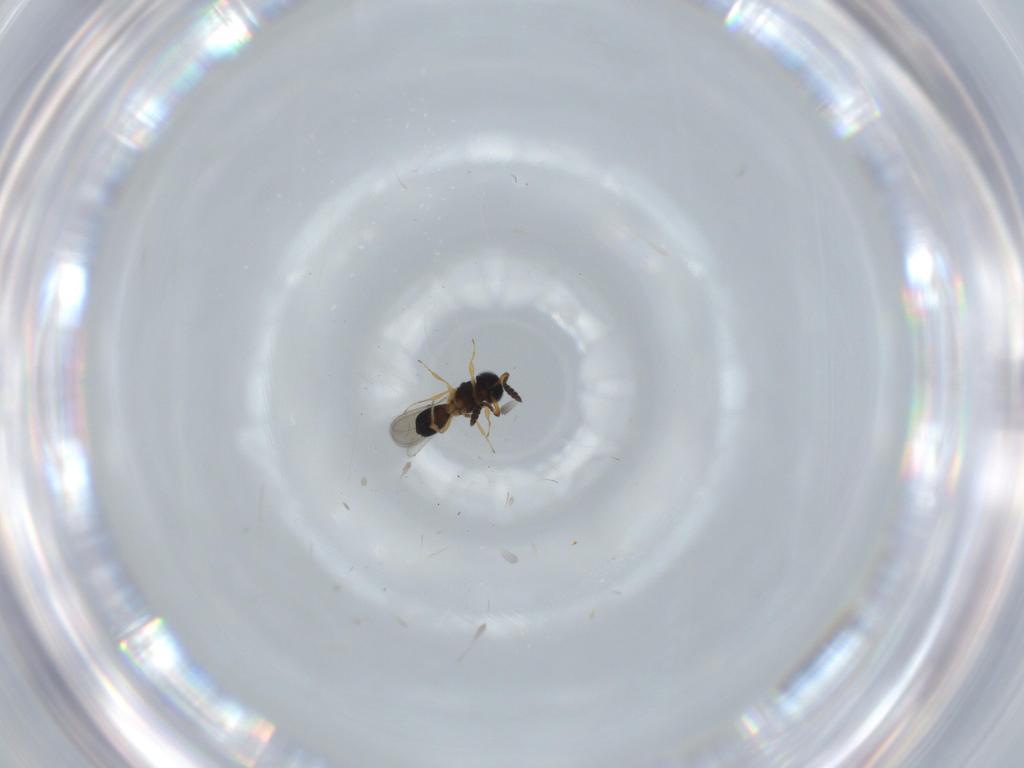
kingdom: Animalia
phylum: Arthropoda
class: Insecta
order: Hymenoptera
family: Scelionidae
